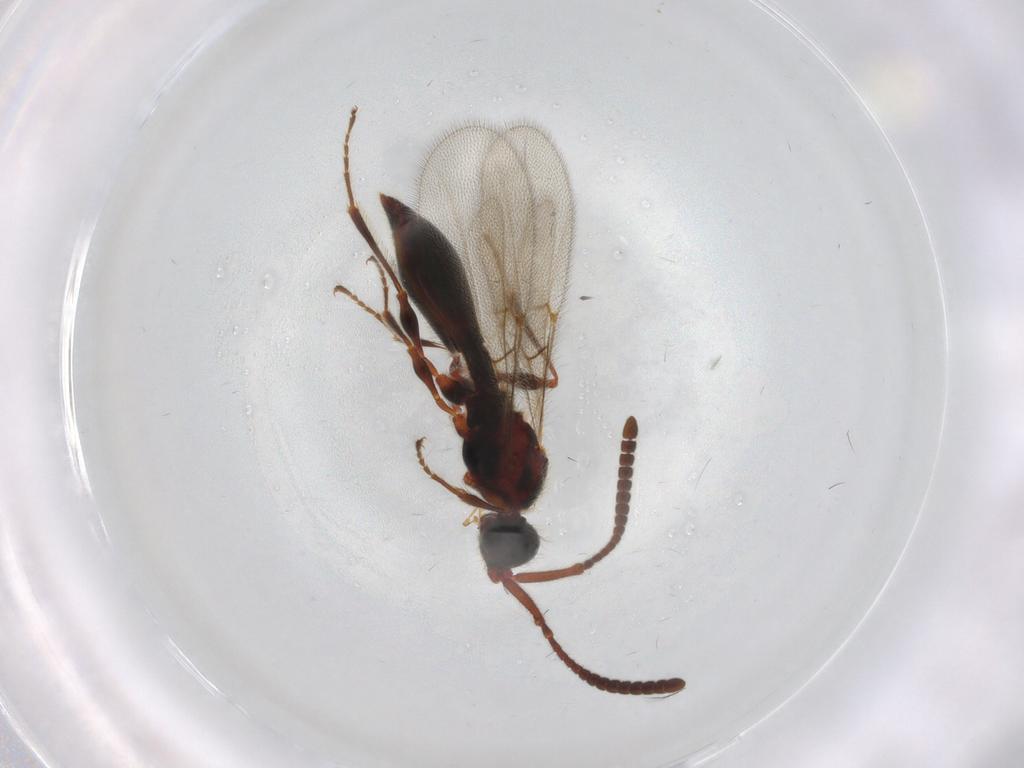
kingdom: Animalia
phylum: Arthropoda
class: Insecta
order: Hymenoptera
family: Diapriidae
